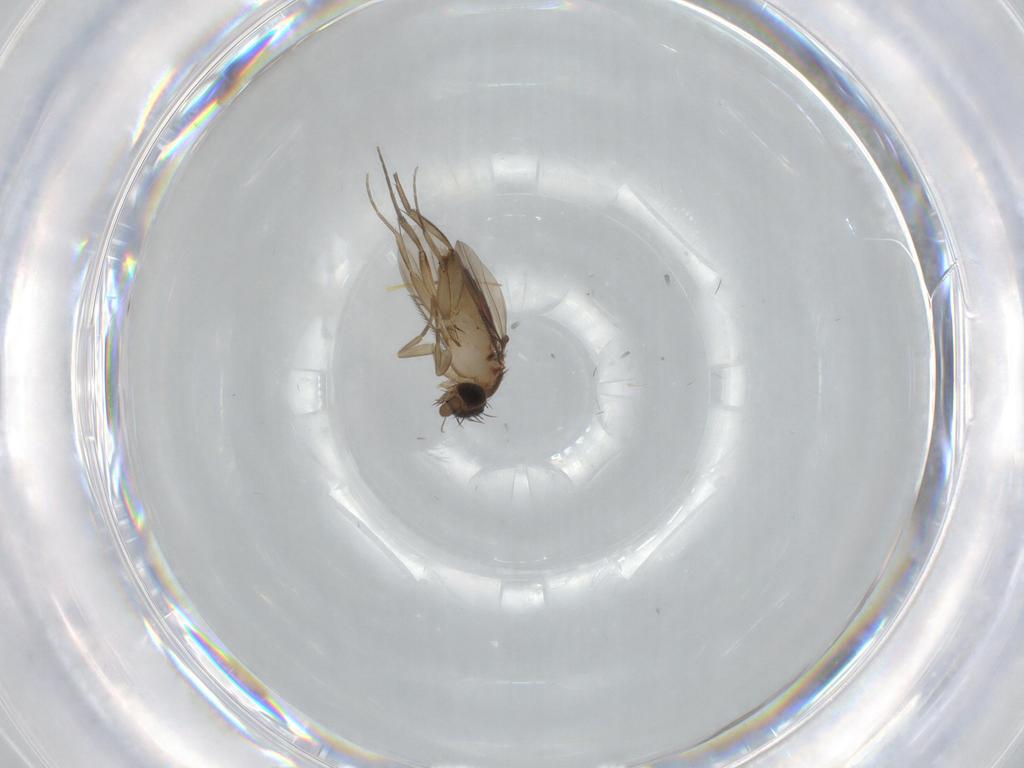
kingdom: Animalia
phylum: Arthropoda
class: Insecta
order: Diptera
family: Phoridae
